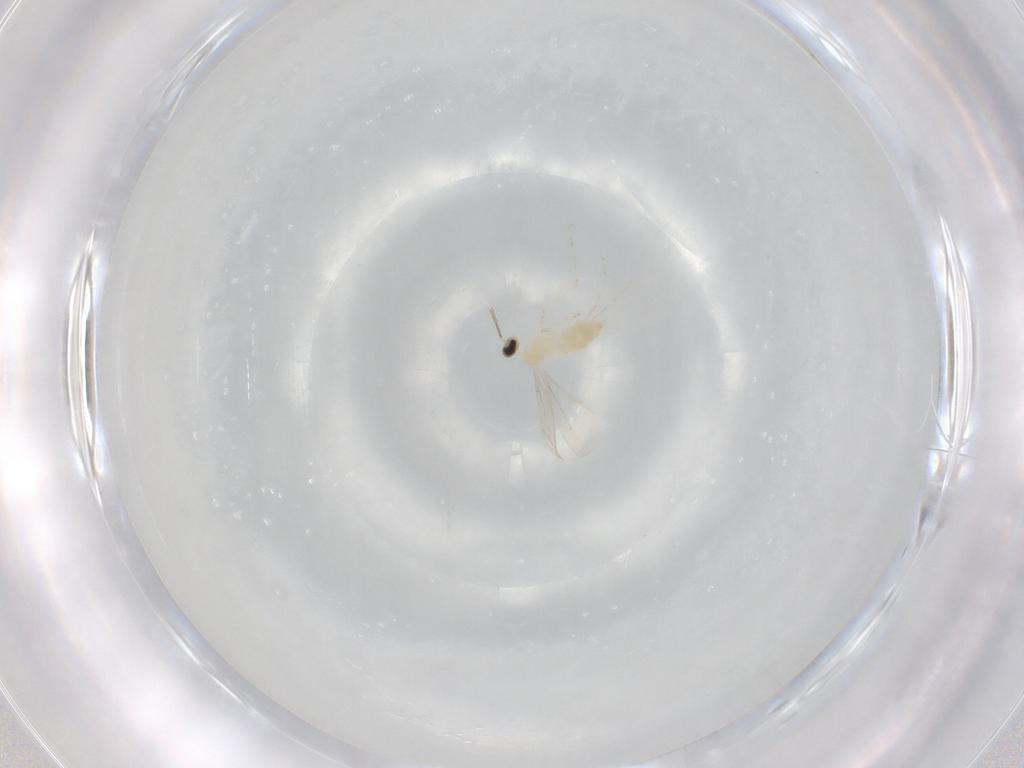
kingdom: Animalia
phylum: Arthropoda
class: Insecta
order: Diptera
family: Cecidomyiidae
